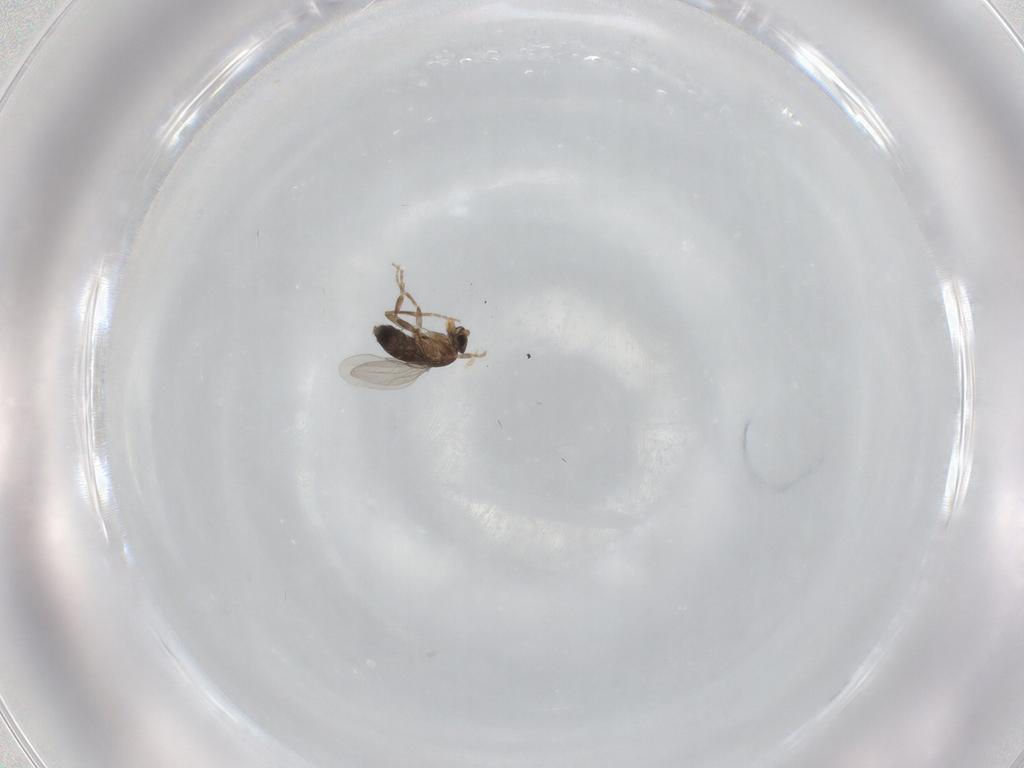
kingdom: Animalia
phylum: Arthropoda
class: Insecta
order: Diptera
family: Phoridae
